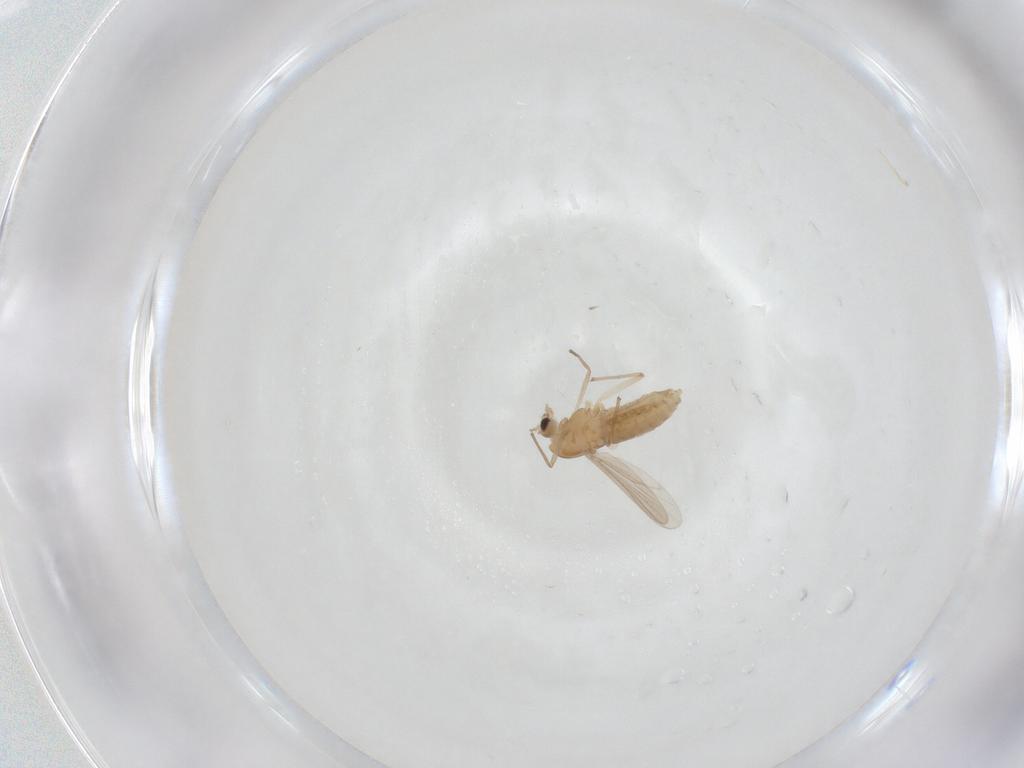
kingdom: Animalia
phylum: Arthropoda
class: Insecta
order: Diptera
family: Chironomidae
